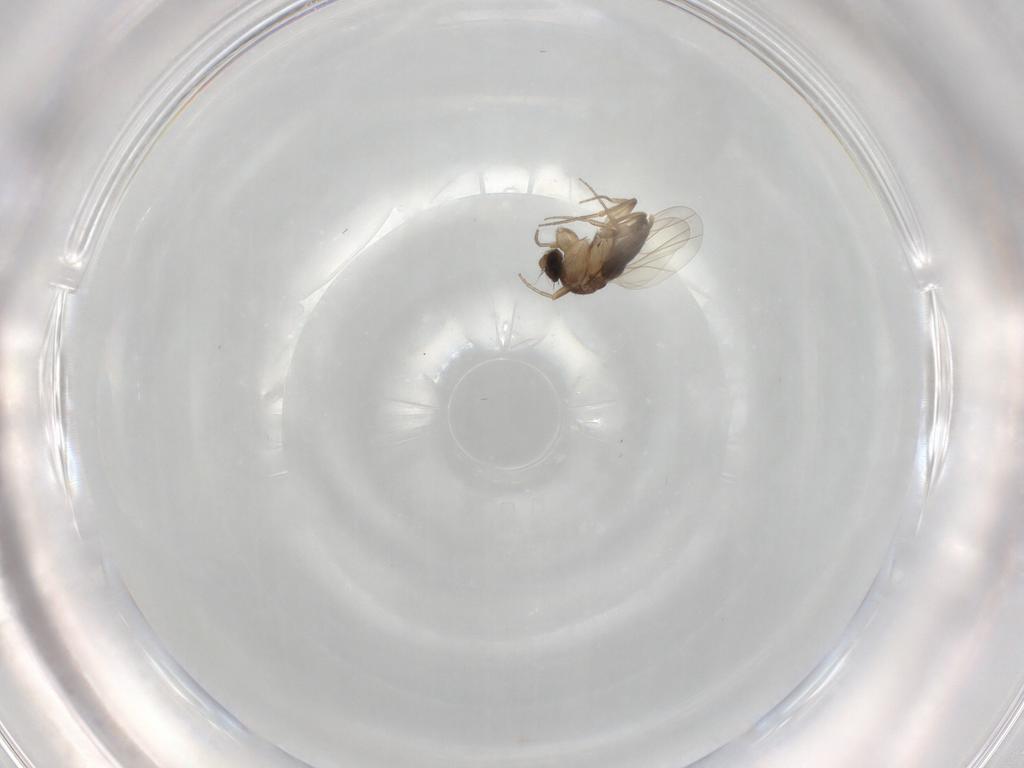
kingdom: Animalia
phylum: Arthropoda
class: Insecta
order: Diptera
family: Phoridae
